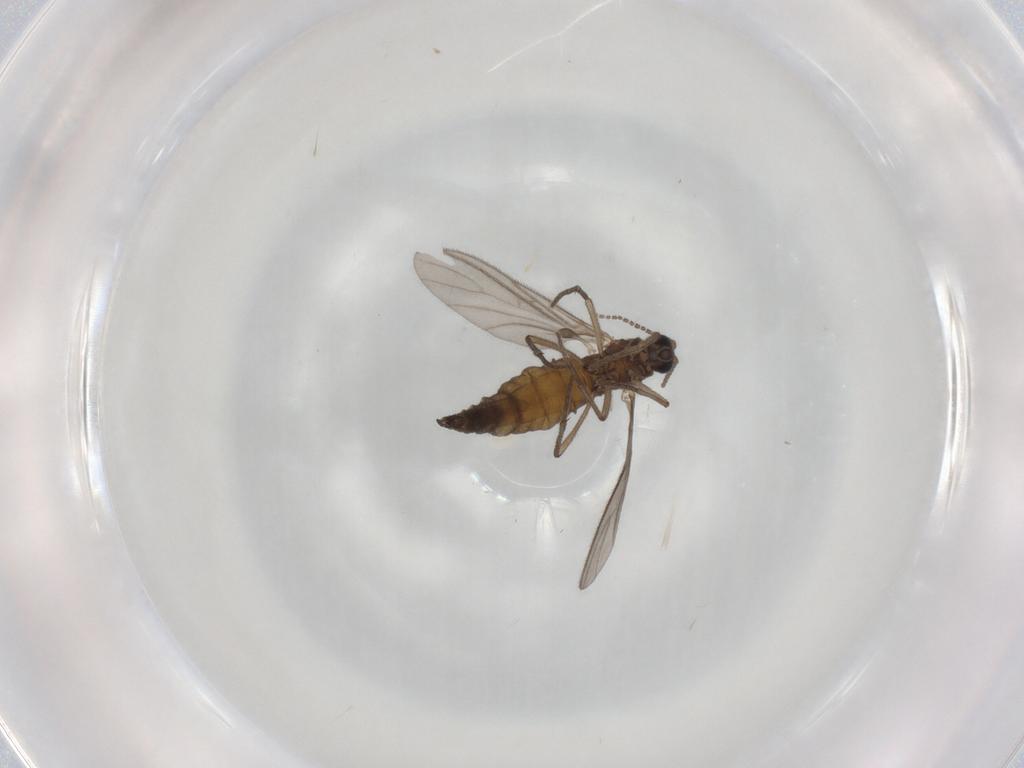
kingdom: Animalia
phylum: Arthropoda
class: Insecta
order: Diptera
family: Sciaridae
